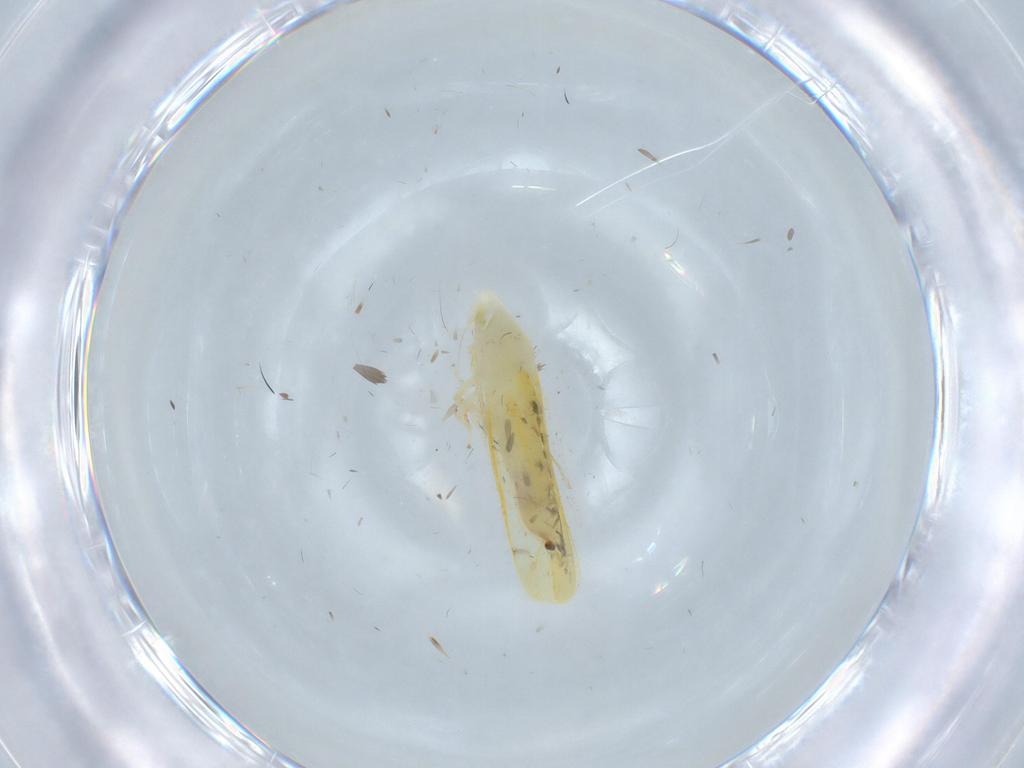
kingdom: Animalia
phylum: Arthropoda
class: Insecta
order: Hemiptera
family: Cicadellidae
